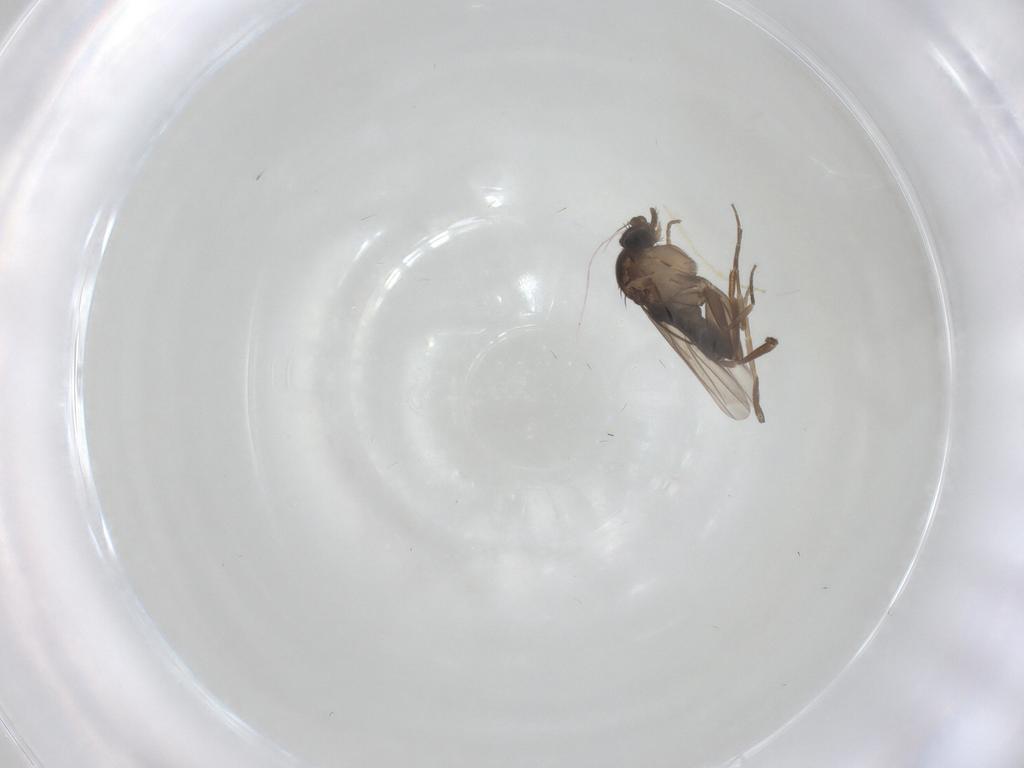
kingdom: Animalia
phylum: Arthropoda
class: Insecta
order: Diptera
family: Phoridae
